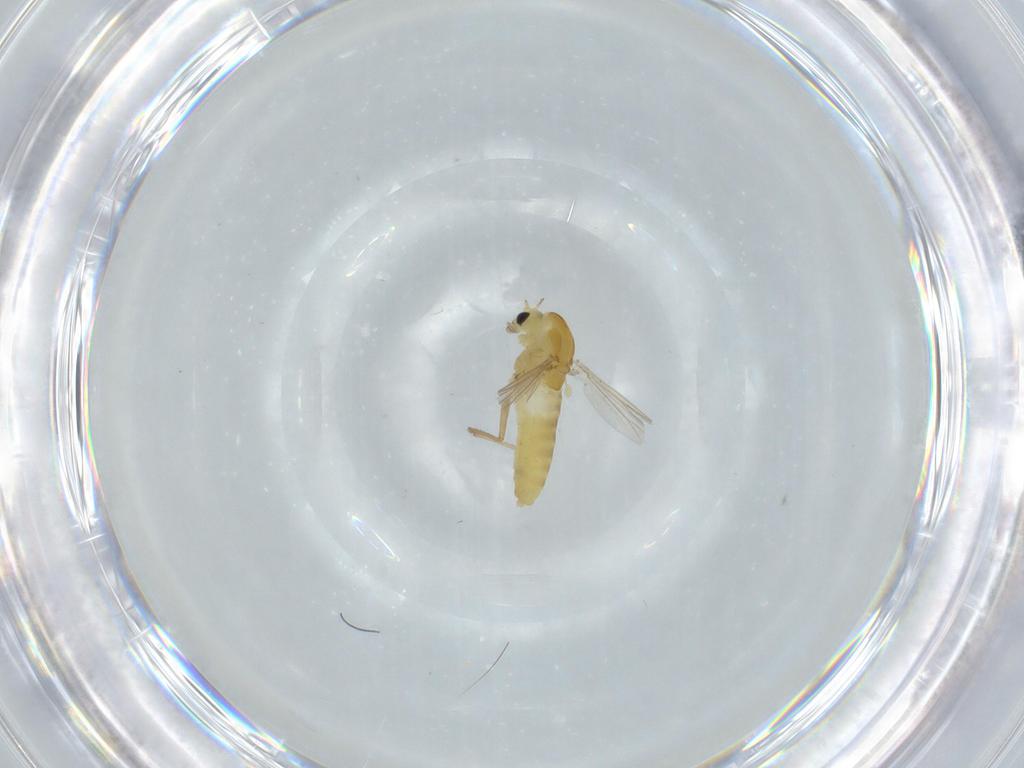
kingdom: Animalia
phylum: Arthropoda
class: Insecta
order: Diptera
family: Chironomidae
